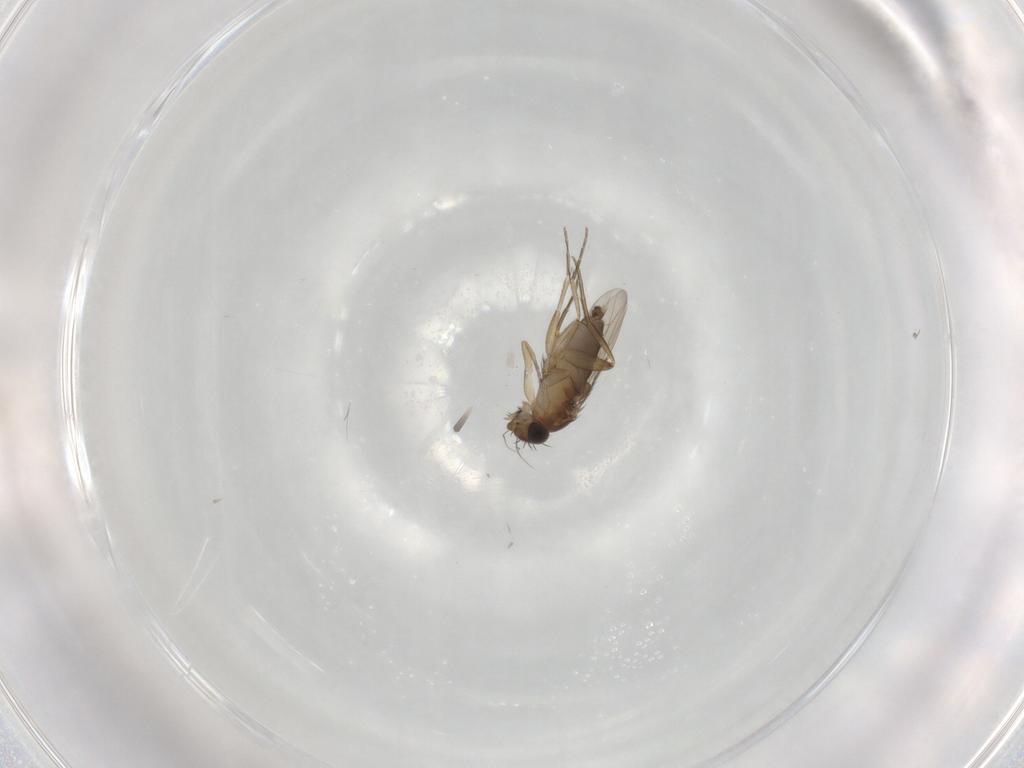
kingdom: Animalia
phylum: Arthropoda
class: Insecta
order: Diptera
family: Phoridae
